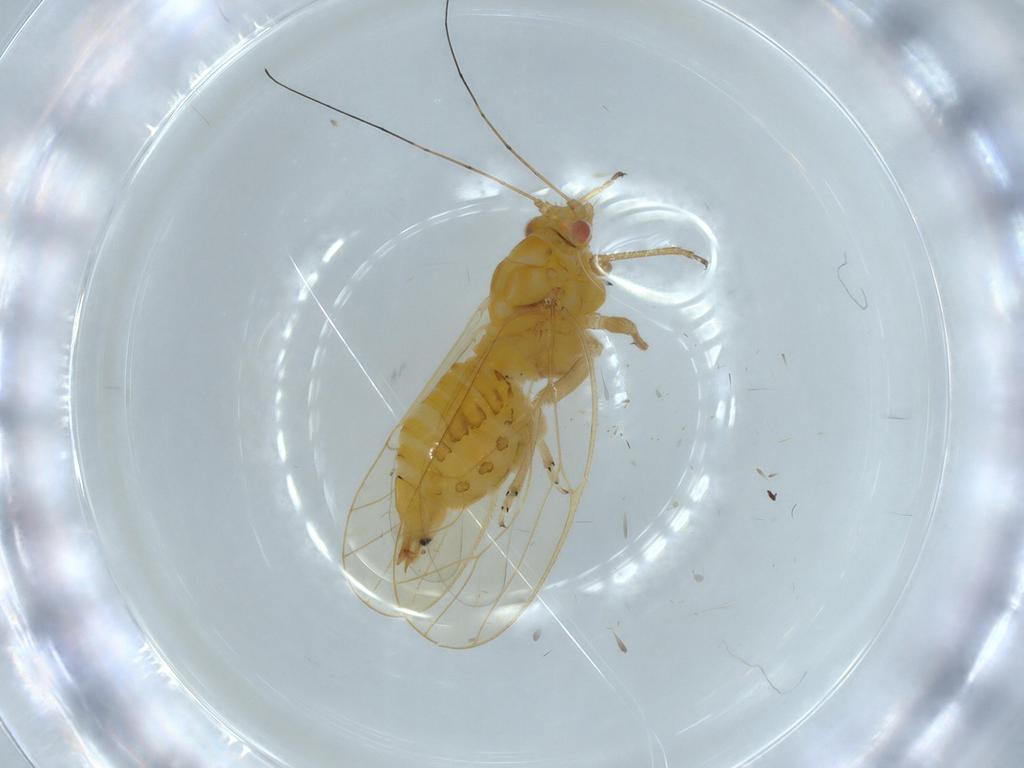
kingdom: Animalia
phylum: Arthropoda
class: Insecta
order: Hemiptera
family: Psyllidae
